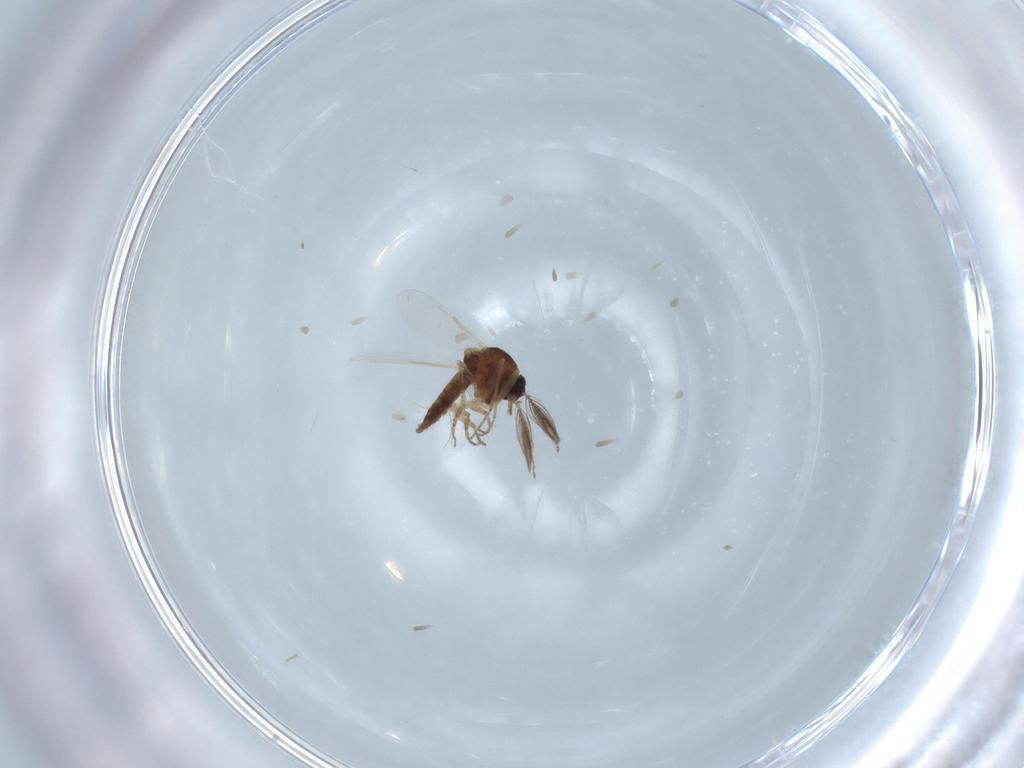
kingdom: Animalia
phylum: Arthropoda
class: Insecta
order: Diptera
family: Ceratopogonidae
